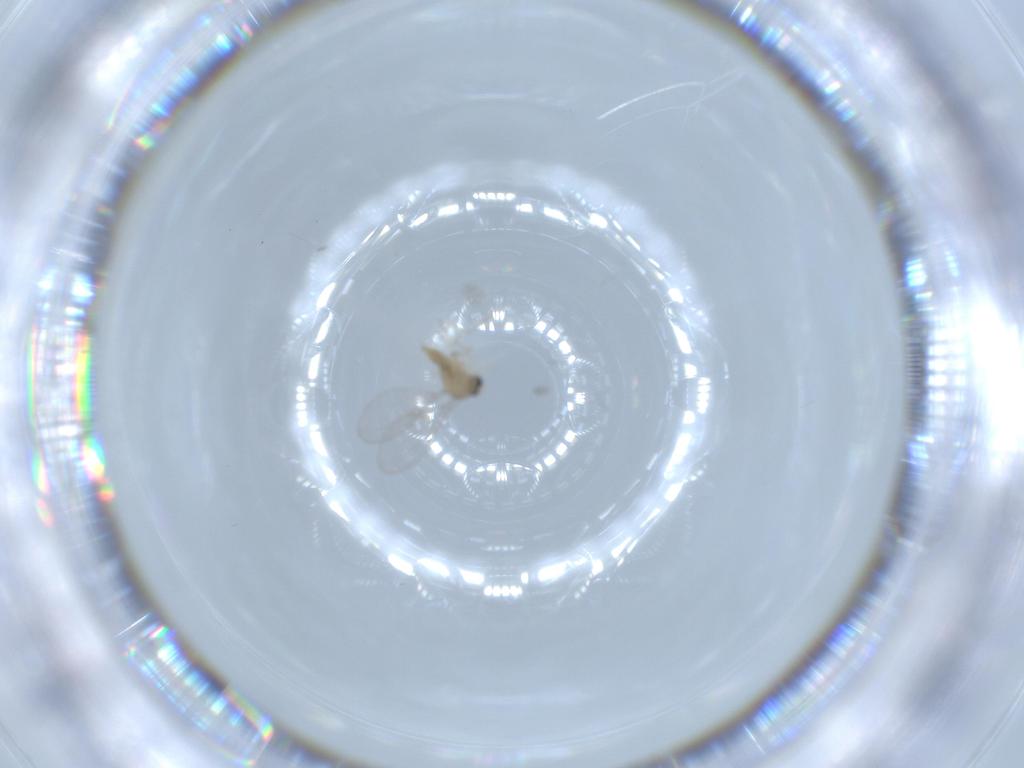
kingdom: Animalia
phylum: Arthropoda
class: Insecta
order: Diptera
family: Cecidomyiidae
